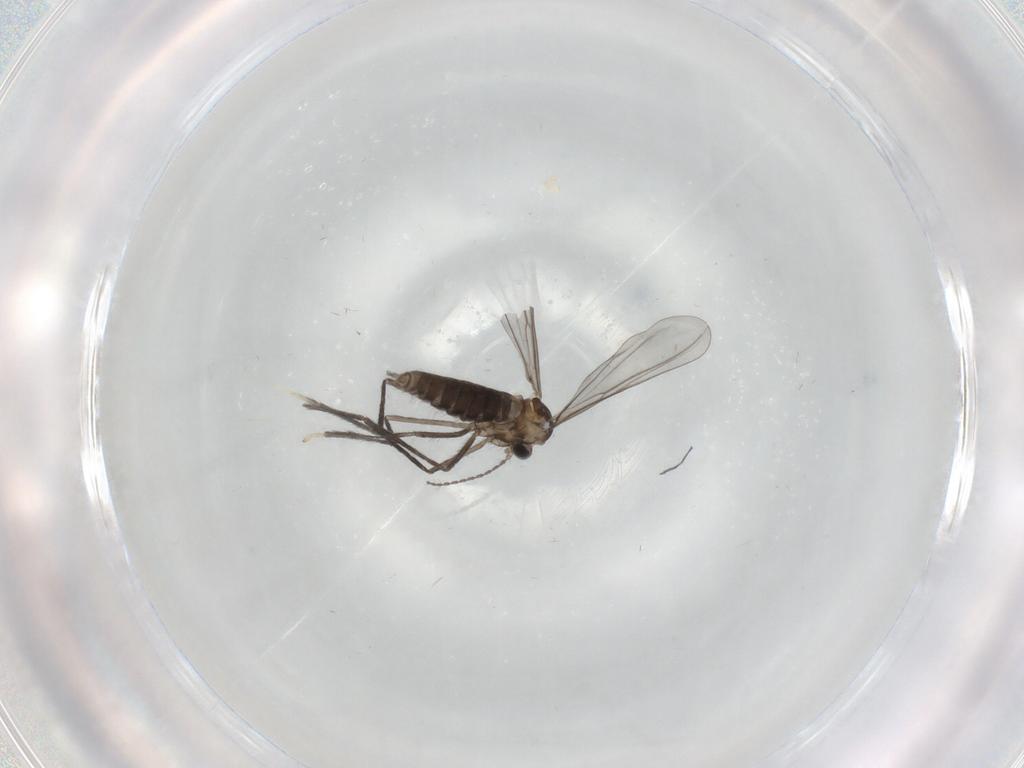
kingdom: Animalia
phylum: Arthropoda
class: Insecta
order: Diptera
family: Cecidomyiidae
